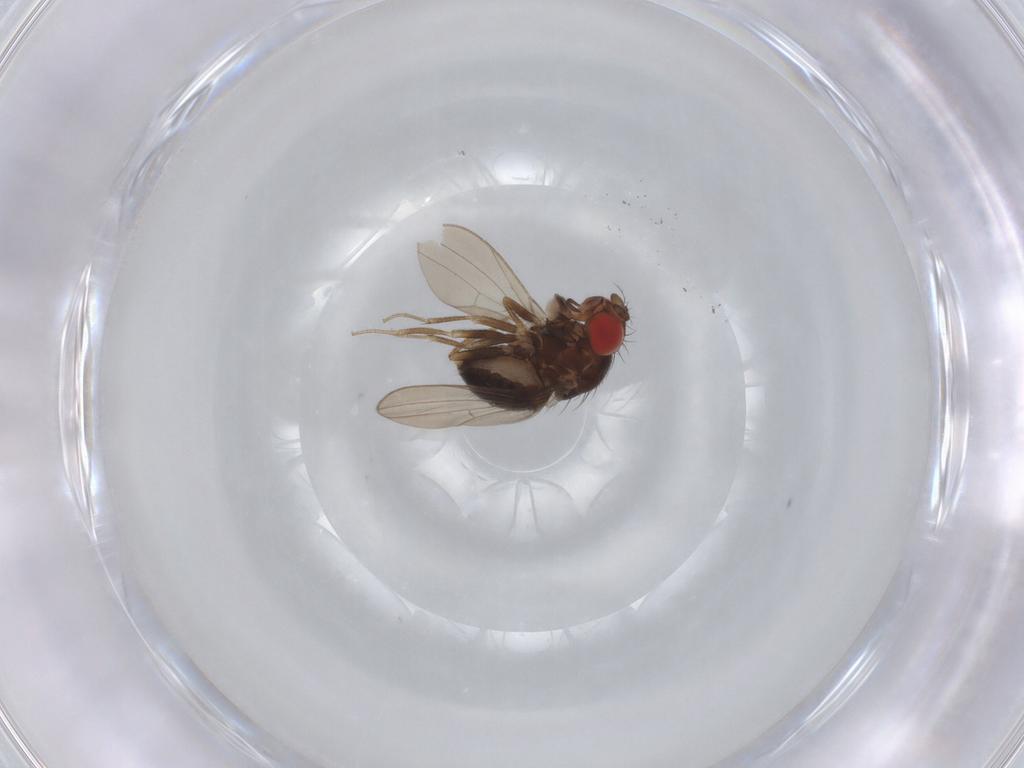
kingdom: Animalia
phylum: Arthropoda
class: Insecta
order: Diptera
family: Drosophilidae
